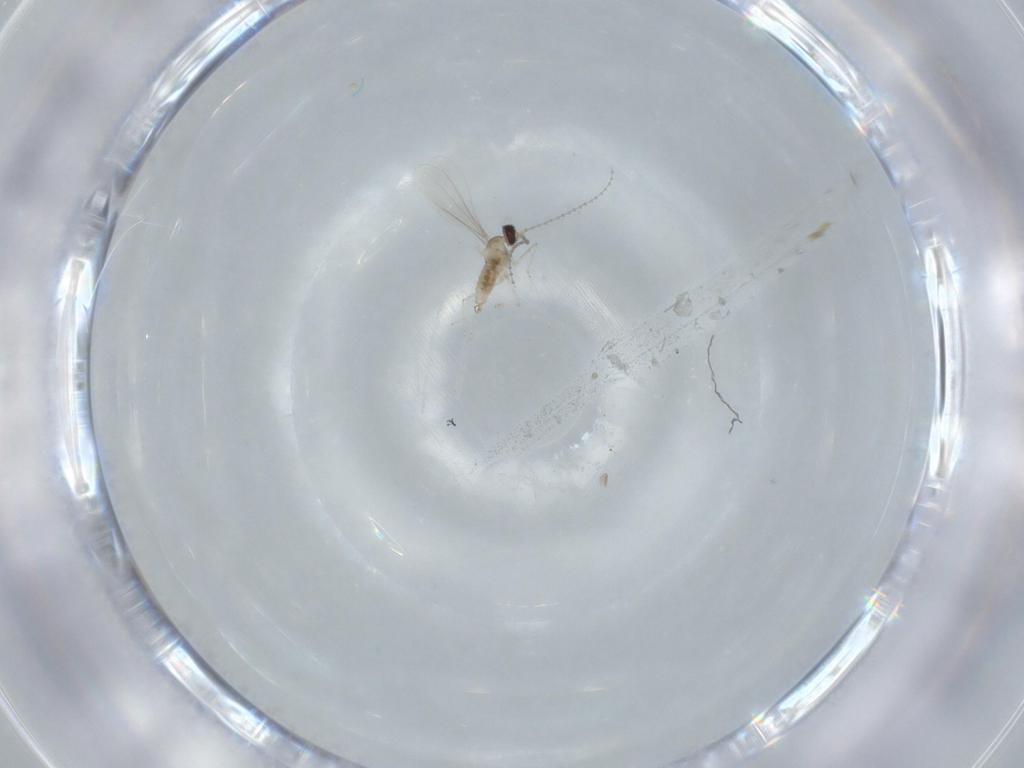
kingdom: Animalia
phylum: Arthropoda
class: Insecta
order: Diptera
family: Cecidomyiidae
